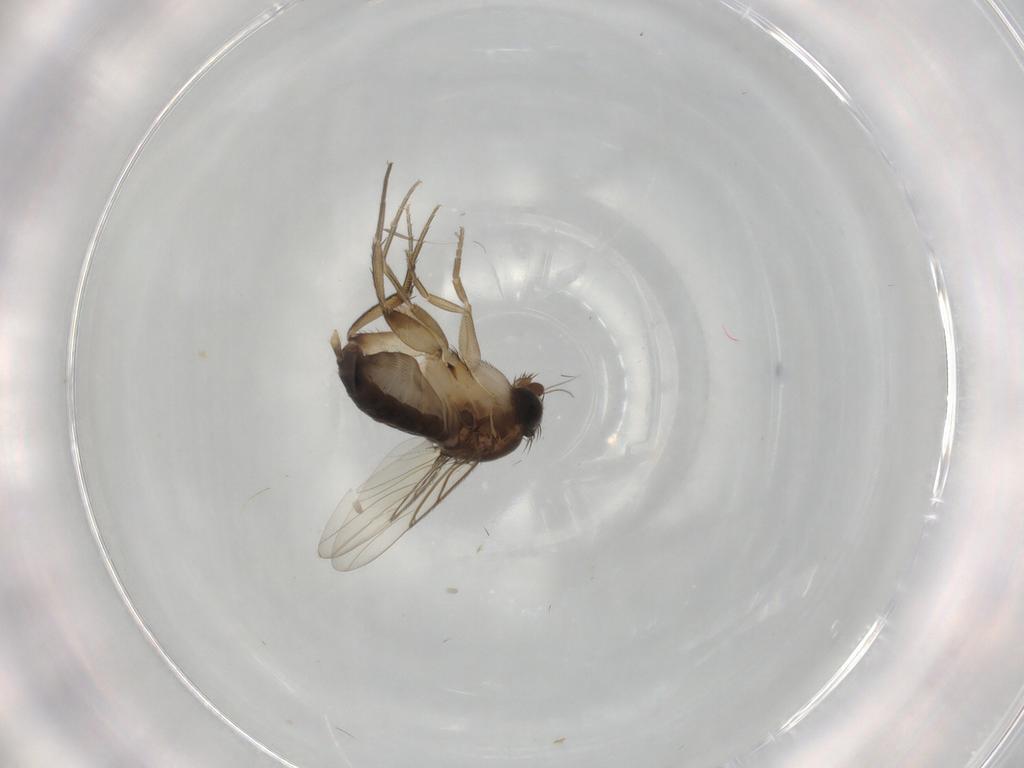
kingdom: Animalia
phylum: Arthropoda
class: Insecta
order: Diptera
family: Phoridae
